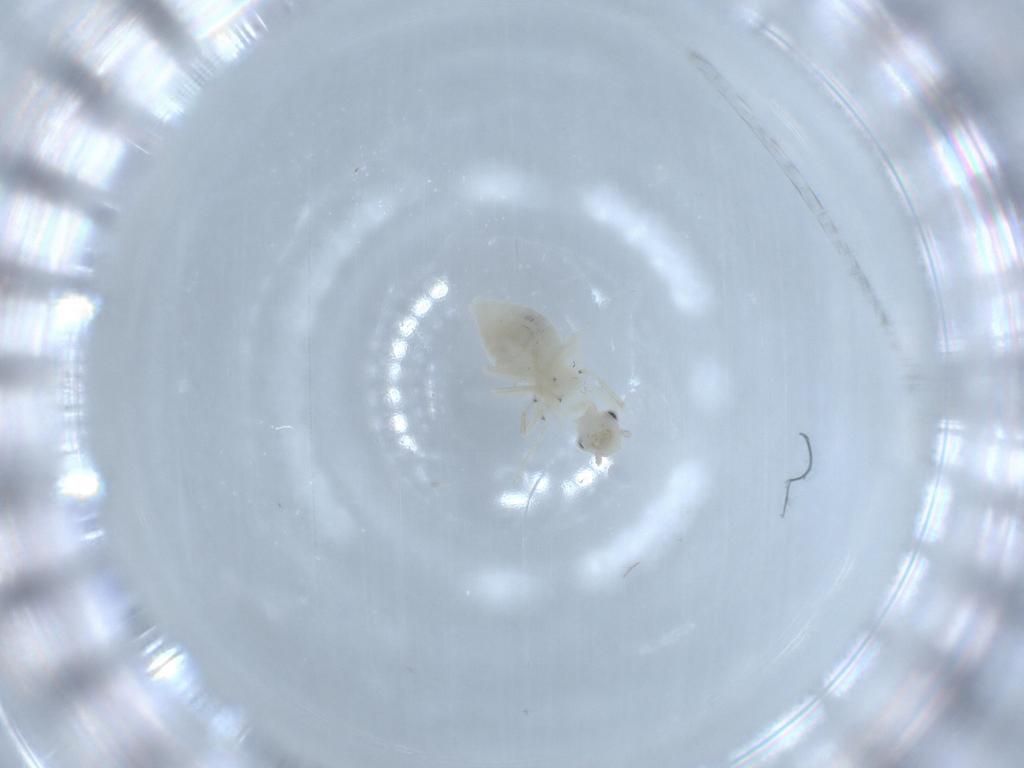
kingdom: Animalia
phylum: Arthropoda
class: Insecta
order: Psocodea
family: Caeciliusidae
